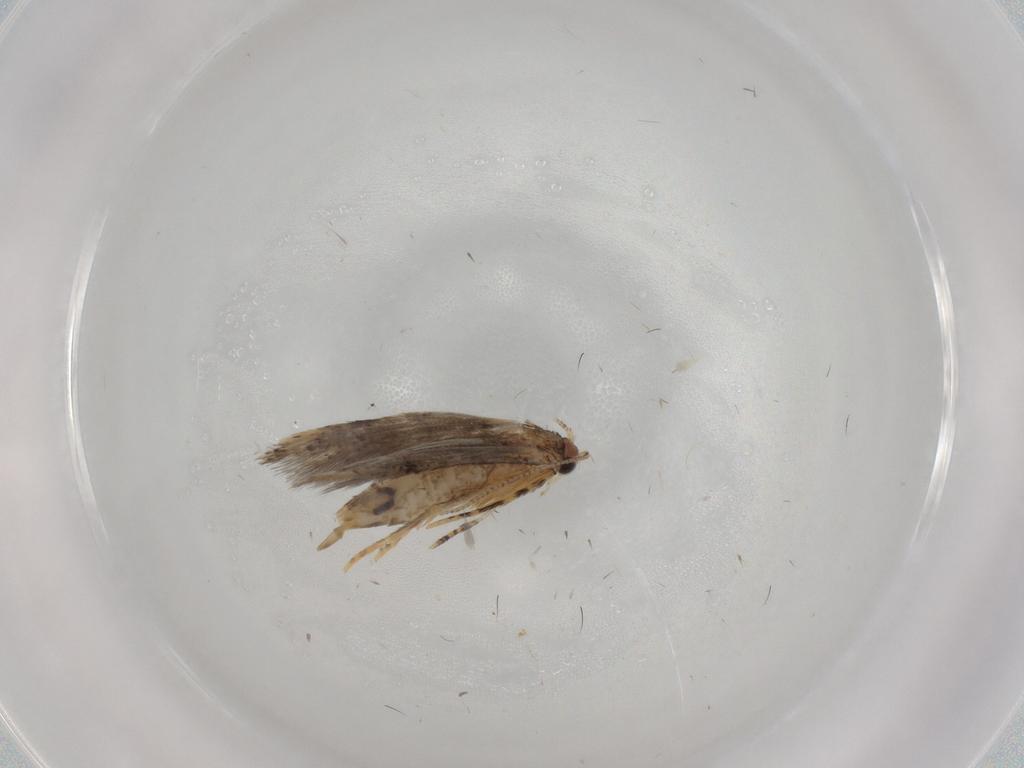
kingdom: Animalia
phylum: Arthropoda
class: Insecta
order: Lepidoptera
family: Tineidae
